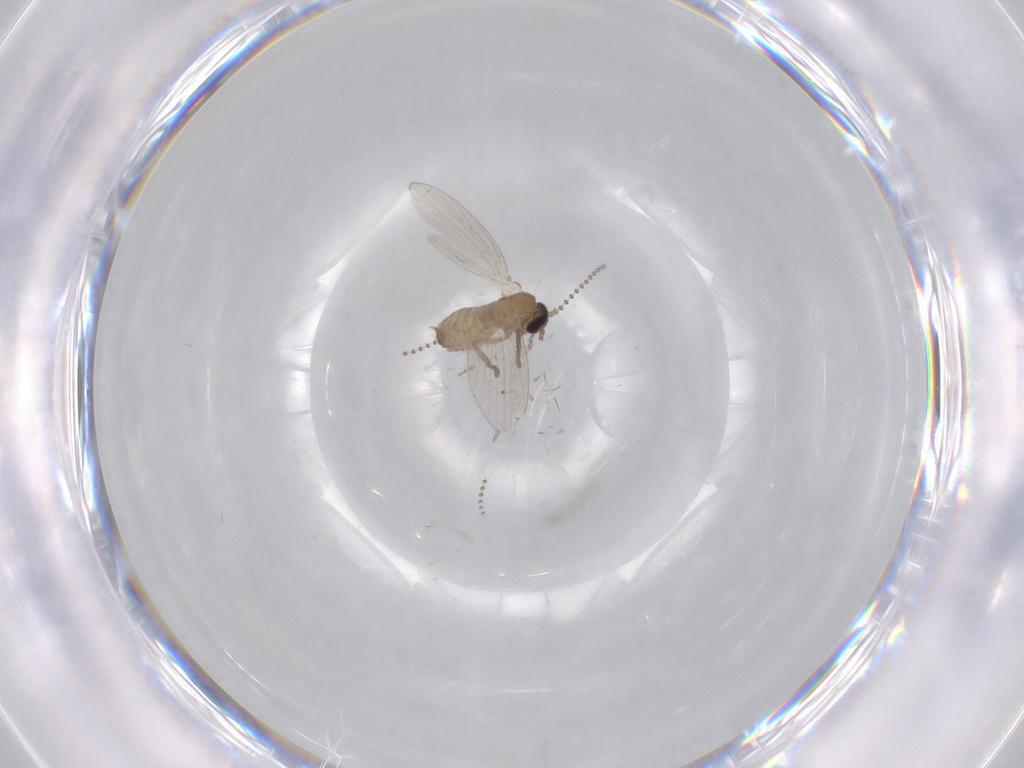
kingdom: Animalia
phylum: Arthropoda
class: Insecta
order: Diptera
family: Psychodidae
